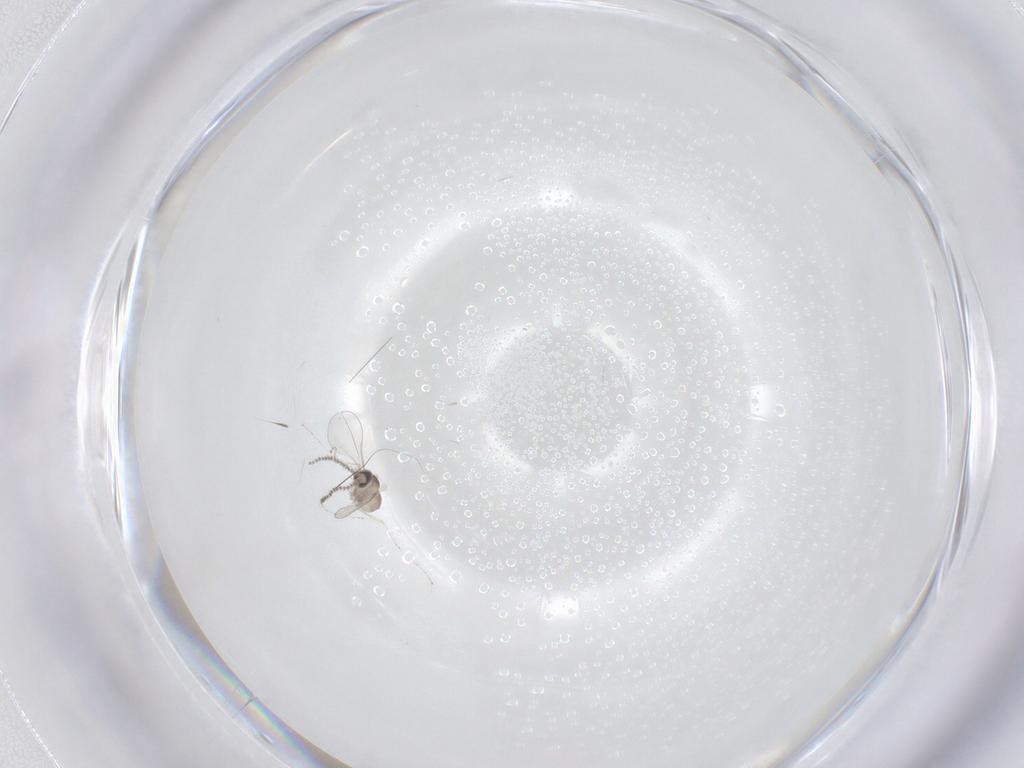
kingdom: Animalia
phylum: Arthropoda
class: Insecta
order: Diptera
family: Cecidomyiidae
